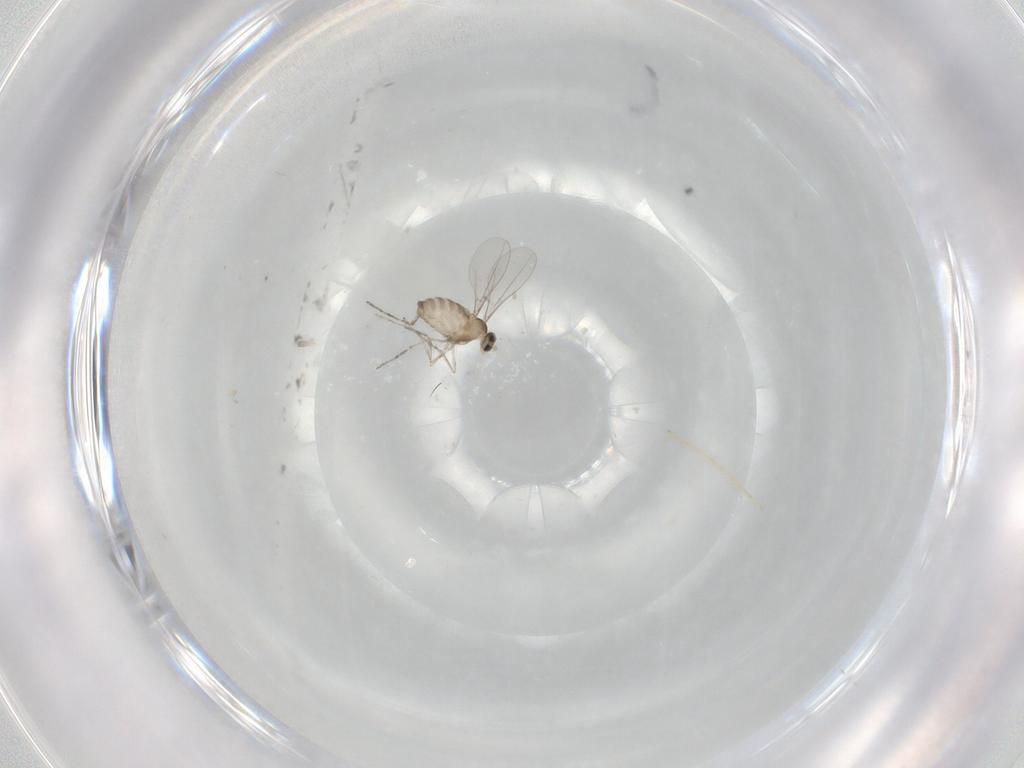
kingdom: Animalia
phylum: Arthropoda
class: Insecta
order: Diptera
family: Cecidomyiidae
